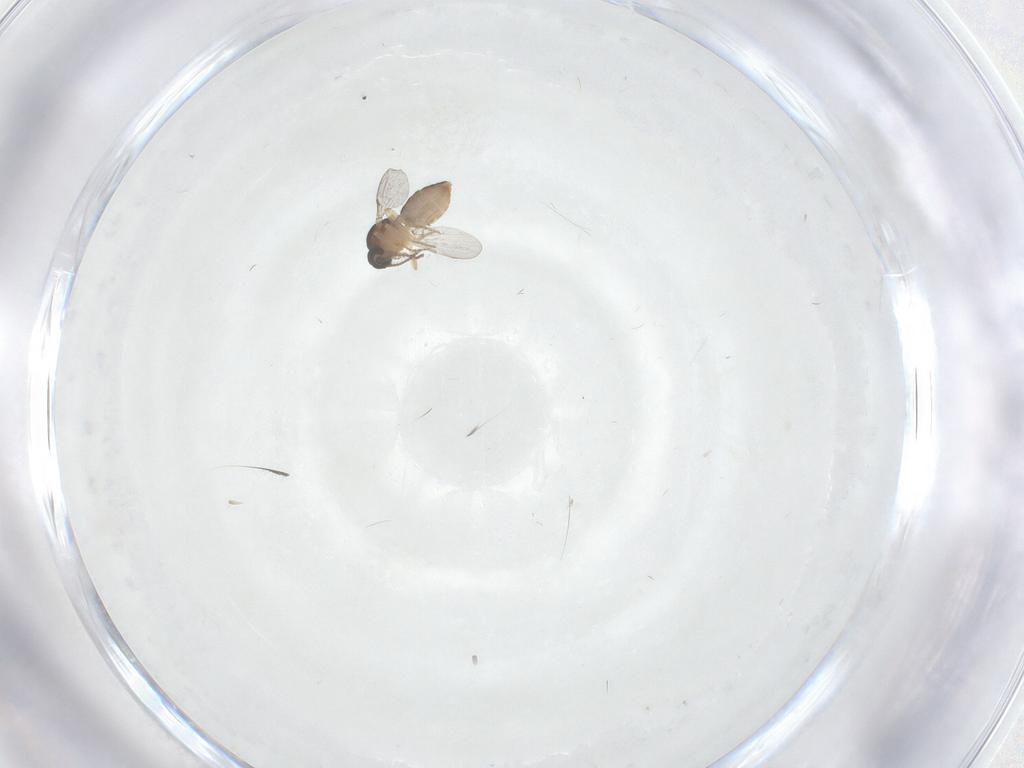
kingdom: Animalia
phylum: Arthropoda
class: Insecta
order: Diptera
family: Ceratopogonidae
